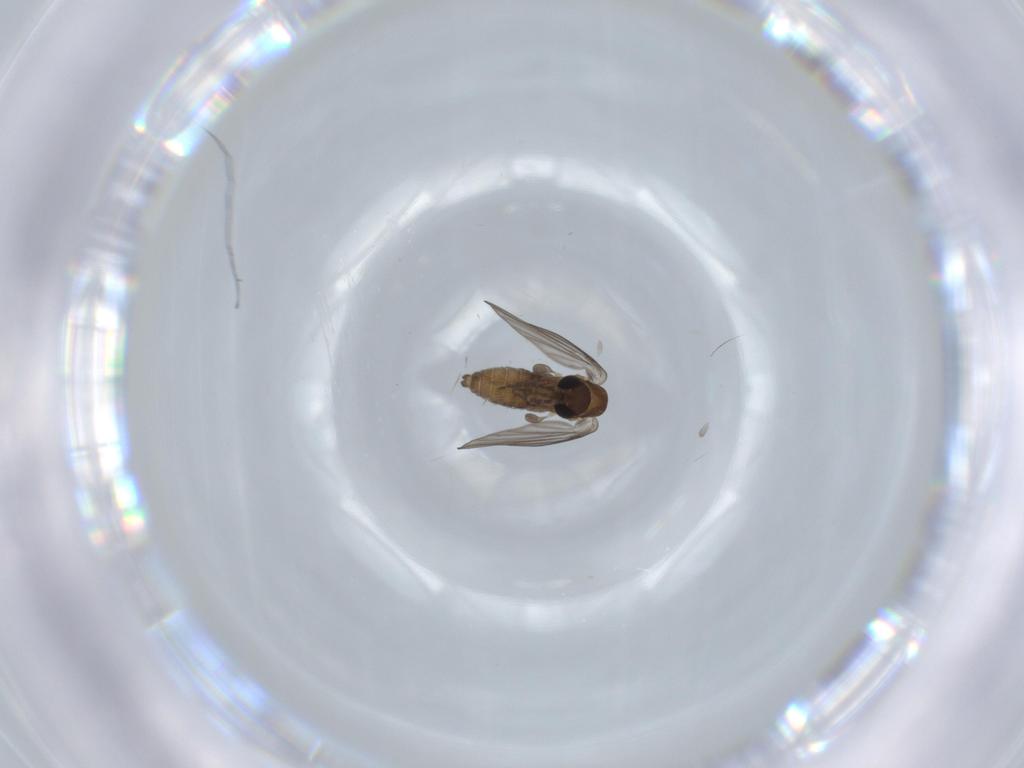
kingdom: Animalia
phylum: Arthropoda
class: Insecta
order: Diptera
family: Psychodidae
